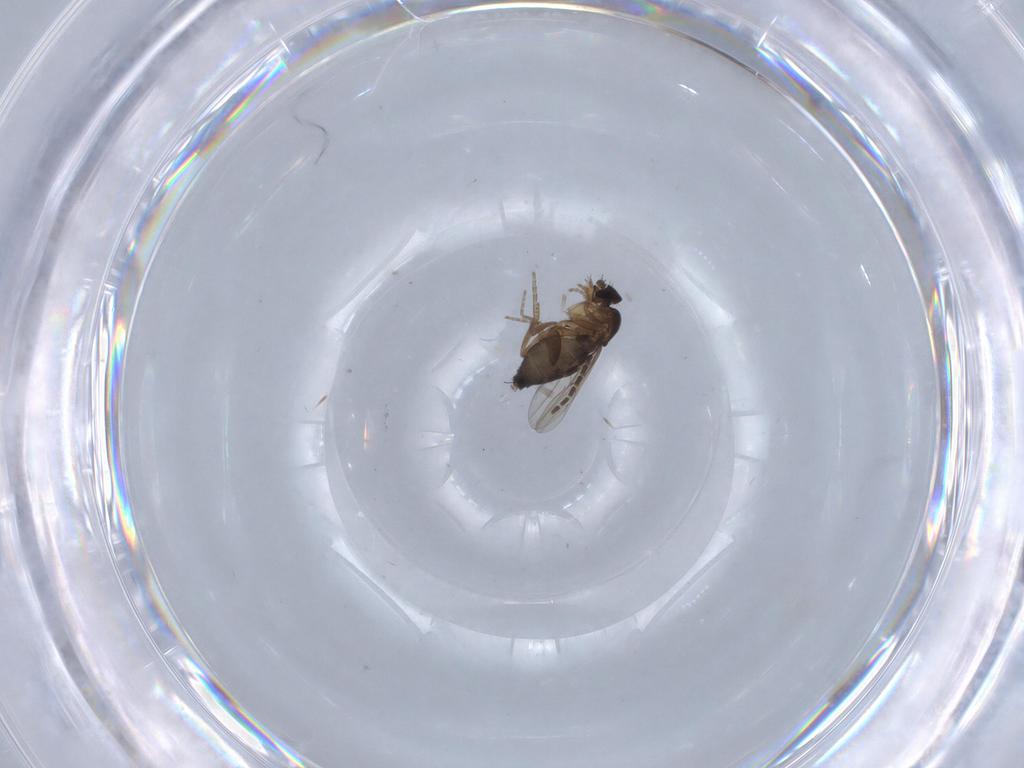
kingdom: Animalia
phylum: Arthropoda
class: Insecta
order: Diptera
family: Phoridae
